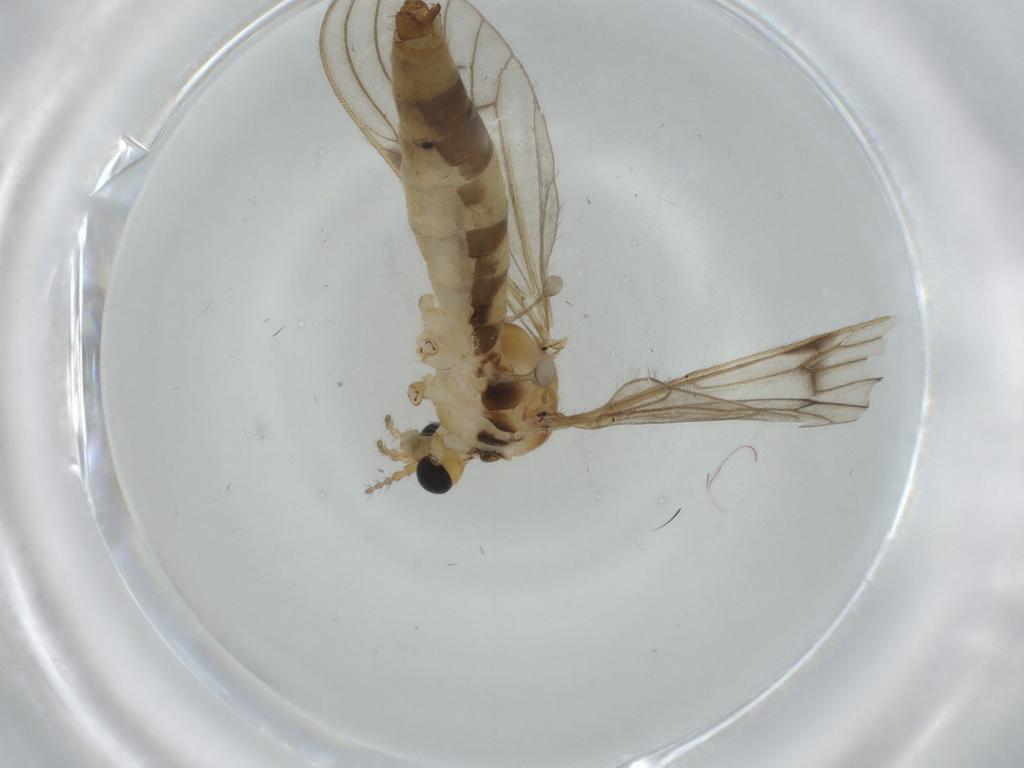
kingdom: Animalia
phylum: Arthropoda
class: Insecta
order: Diptera
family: Limoniidae
